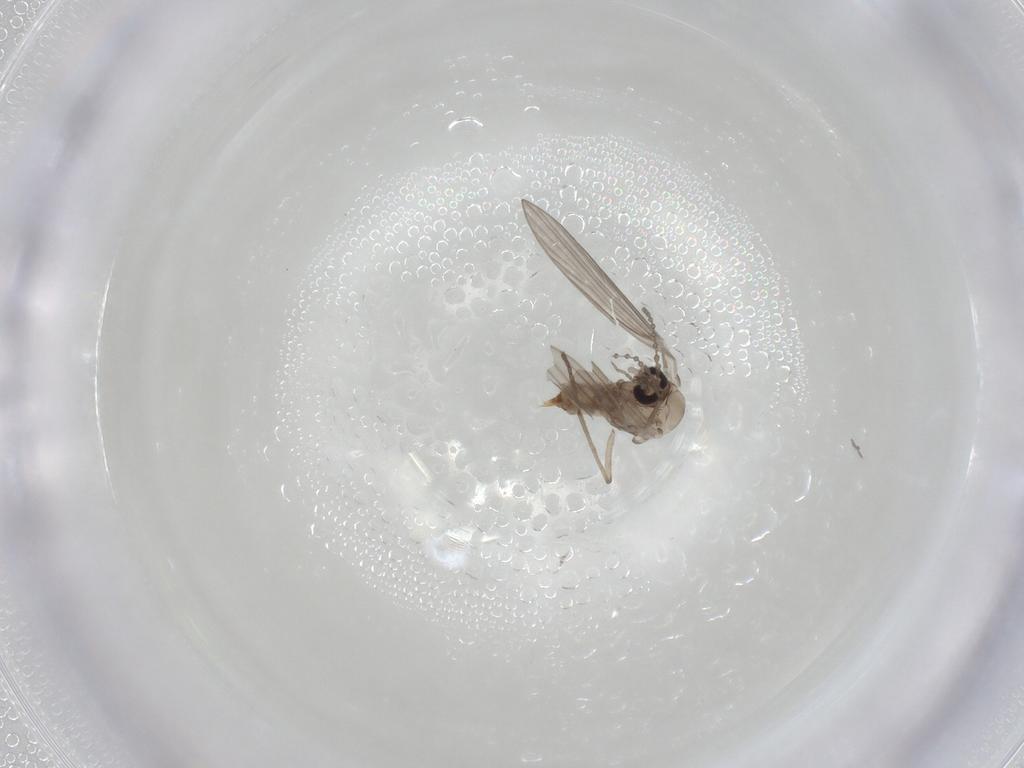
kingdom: Animalia
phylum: Arthropoda
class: Insecta
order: Diptera
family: Psychodidae
